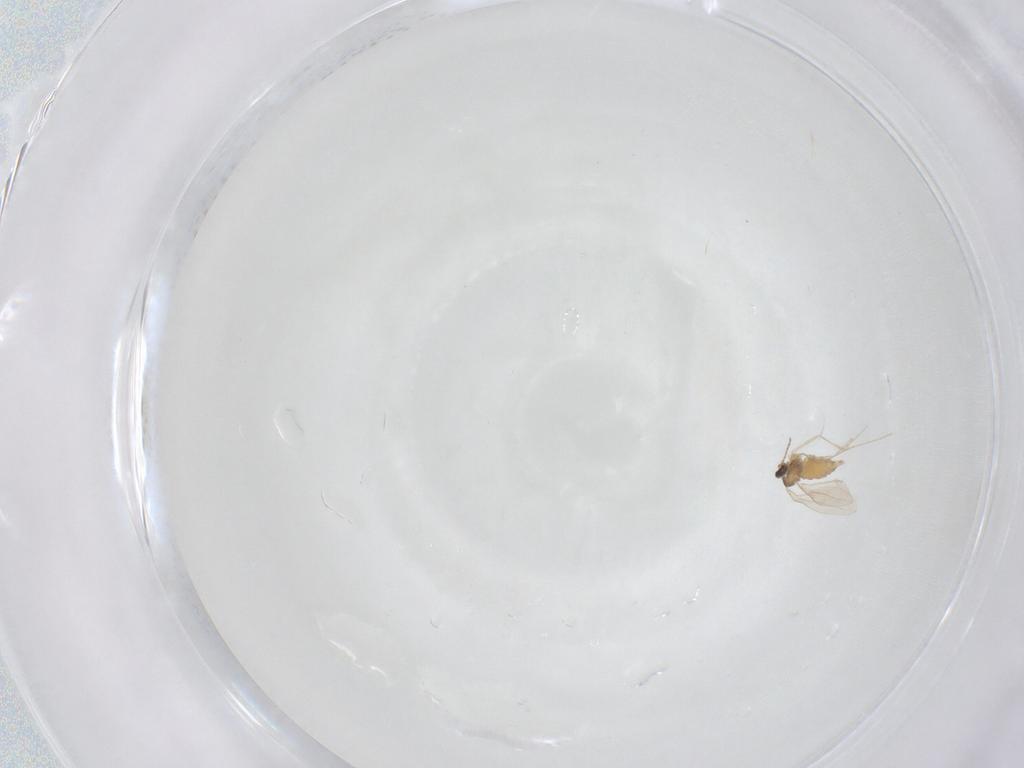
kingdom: Animalia
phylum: Arthropoda
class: Insecta
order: Diptera
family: Cecidomyiidae
